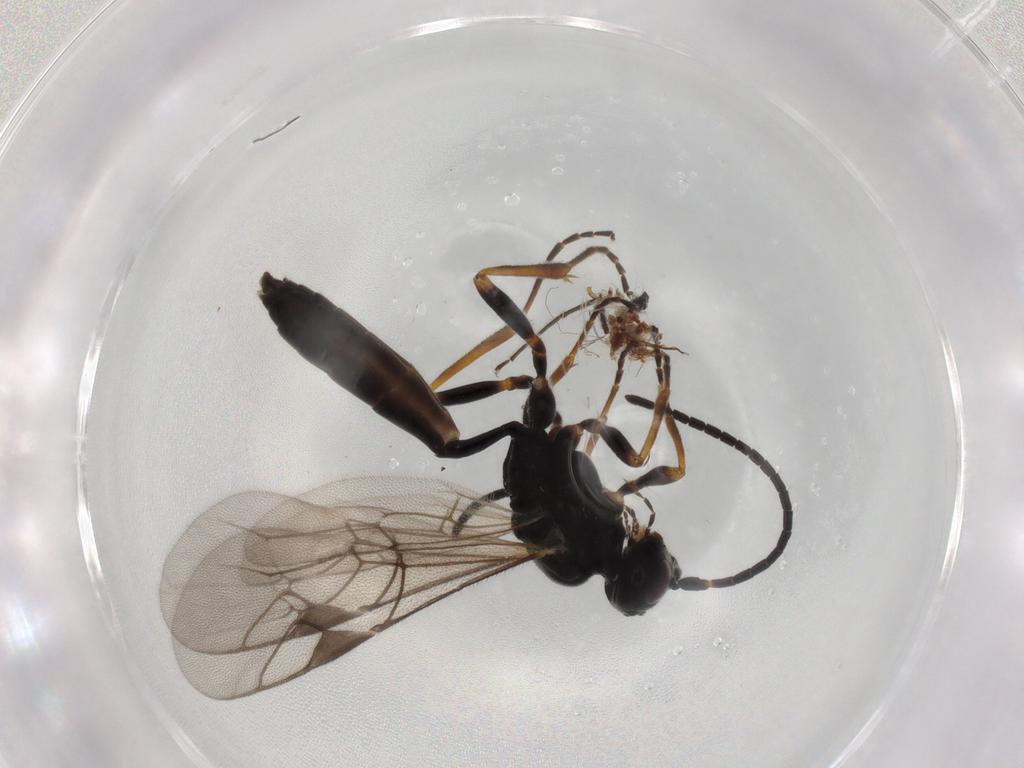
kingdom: Animalia
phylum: Arthropoda
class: Insecta
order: Hymenoptera
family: Ichneumonidae
